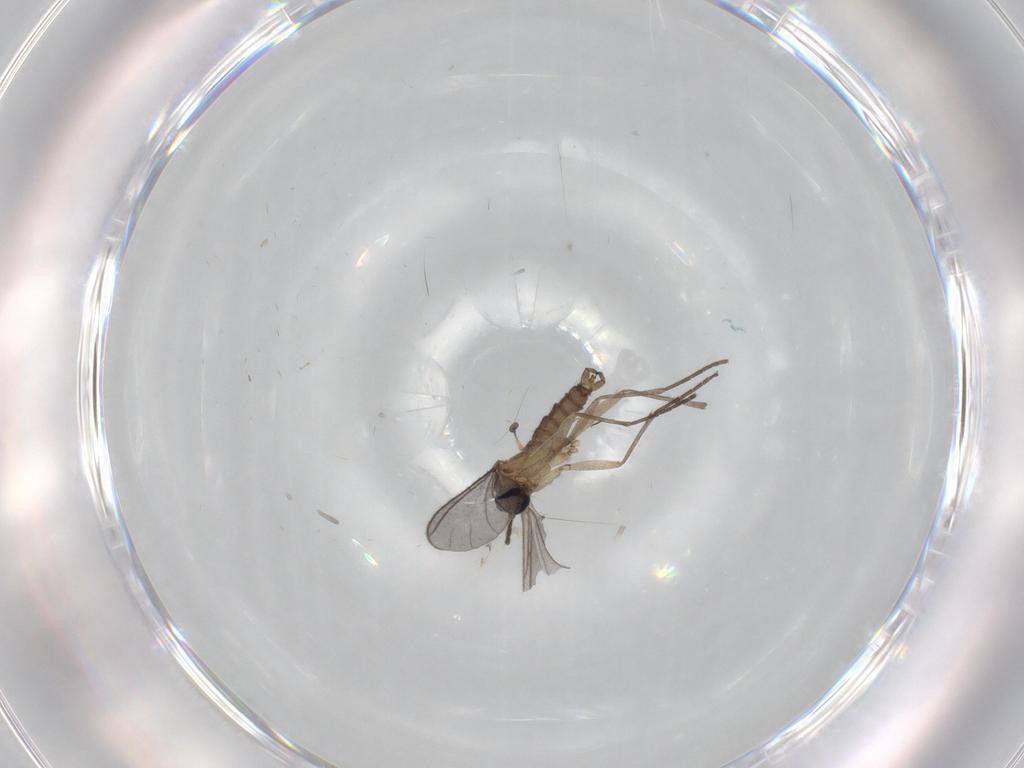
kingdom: Animalia
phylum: Arthropoda
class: Insecta
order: Diptera
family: Sciaridae
